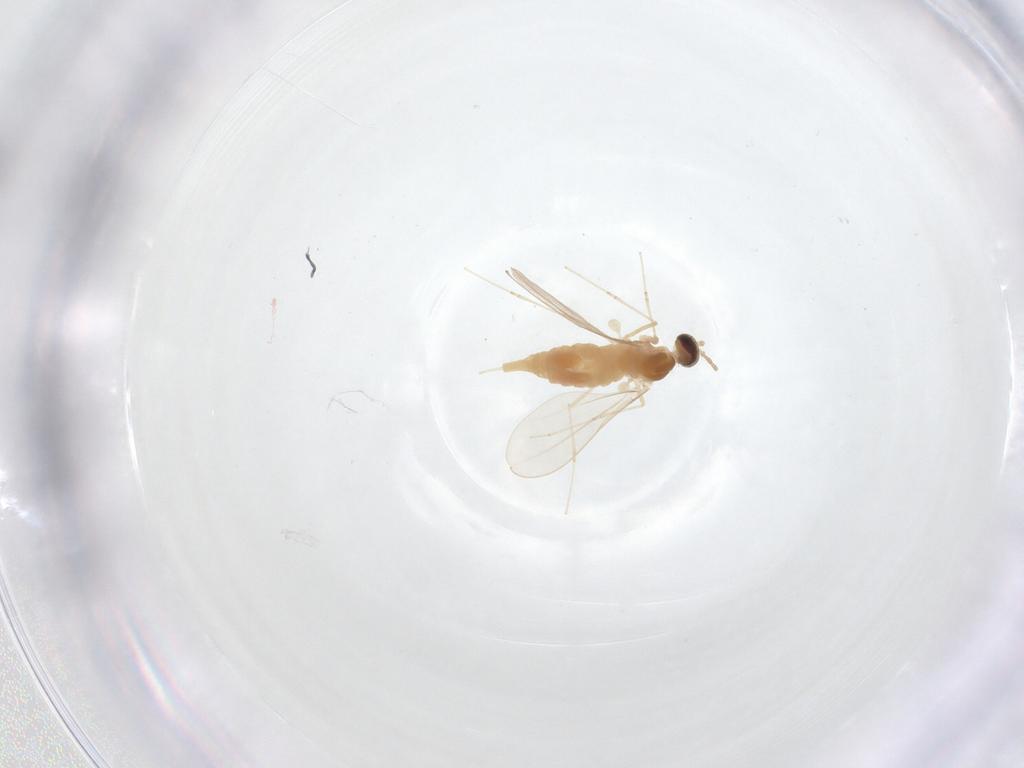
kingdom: Animalia
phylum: Arthropoda
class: Insecta
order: Diptera
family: Cecidomyiidae
